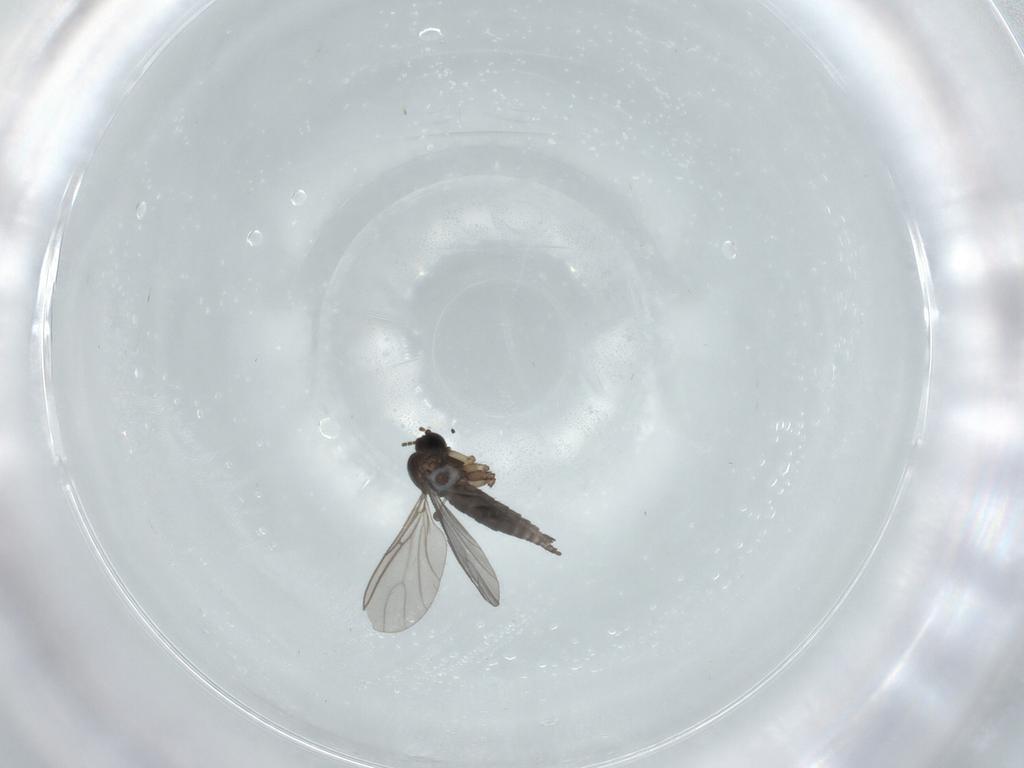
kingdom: Animalia
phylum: Arthropoda
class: Insecta
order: Diptera
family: Sciaridae
